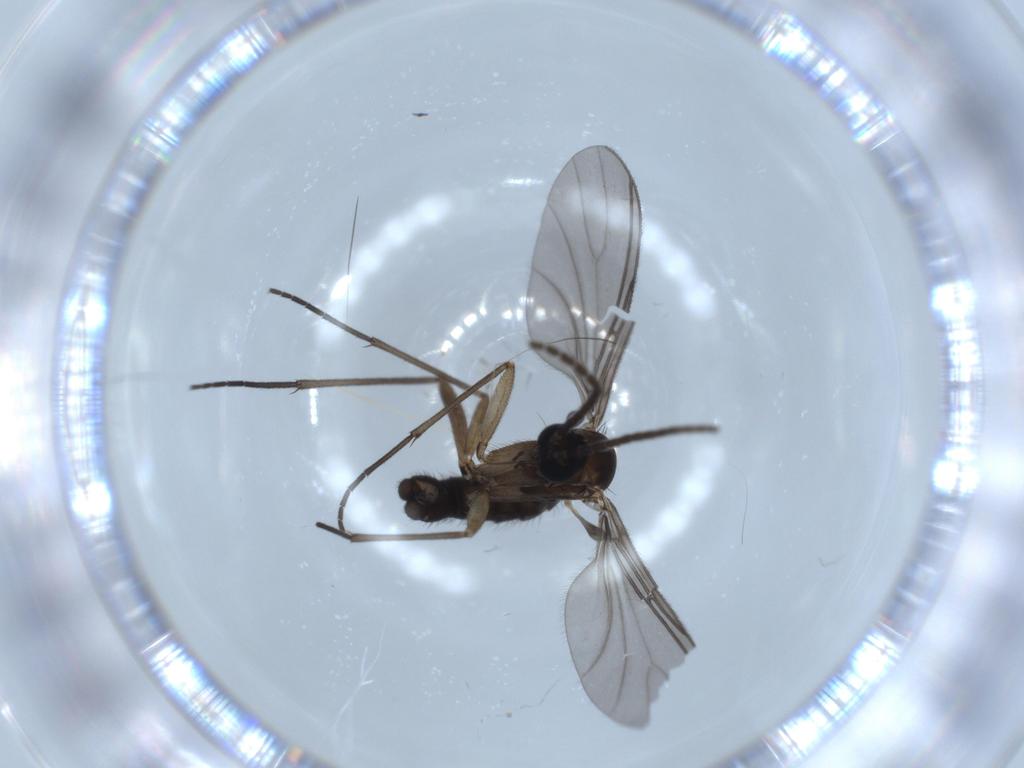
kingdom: Animalia
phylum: Arthropoda
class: Insecta
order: Diptera
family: Sciaridae
